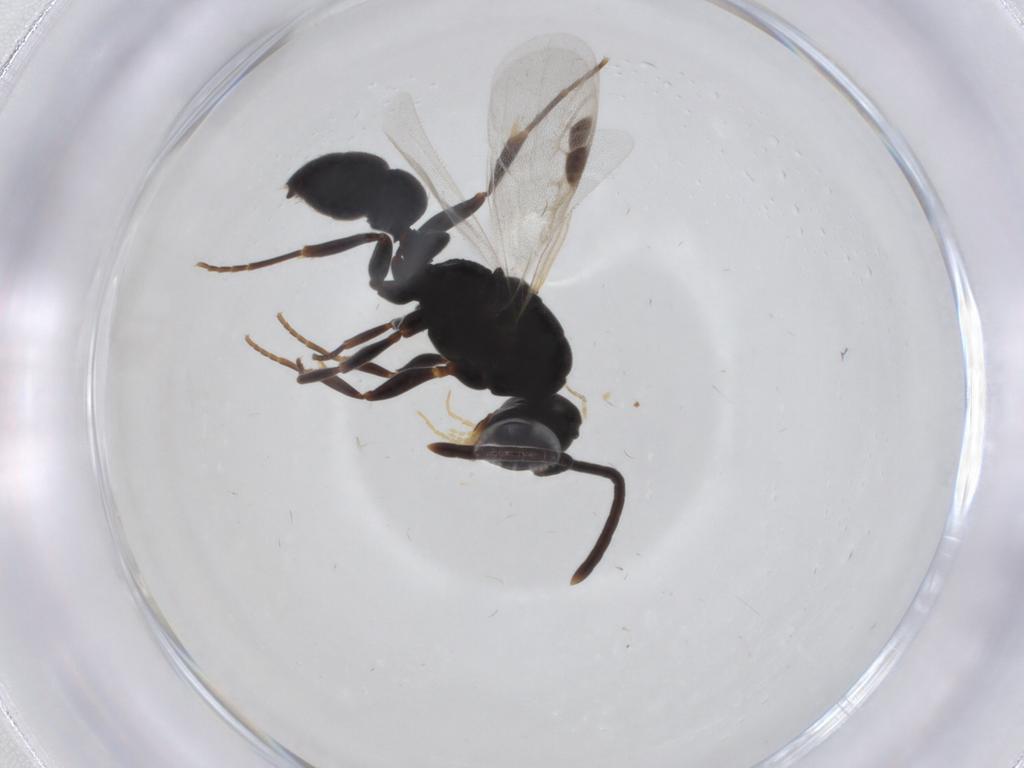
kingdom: Animalia
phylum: Arthropoda
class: Insecta
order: Hymenoptera
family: Formicidae
